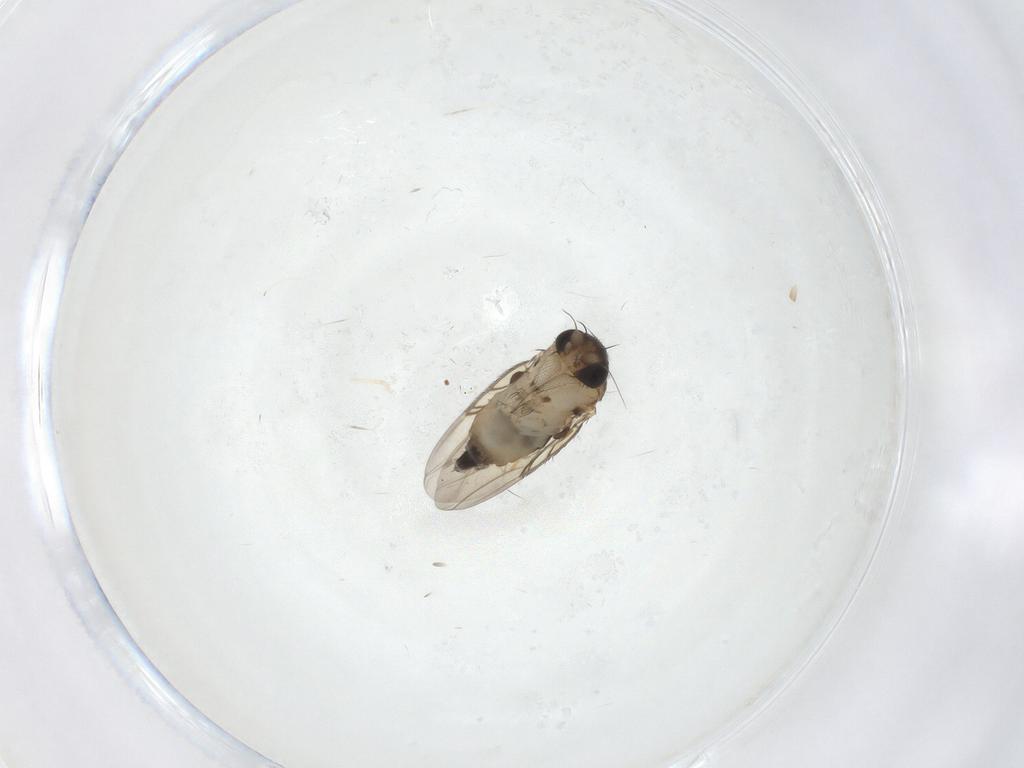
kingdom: Animalia
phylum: Arthropoda
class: Insecta
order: Diptera
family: Phoridae
